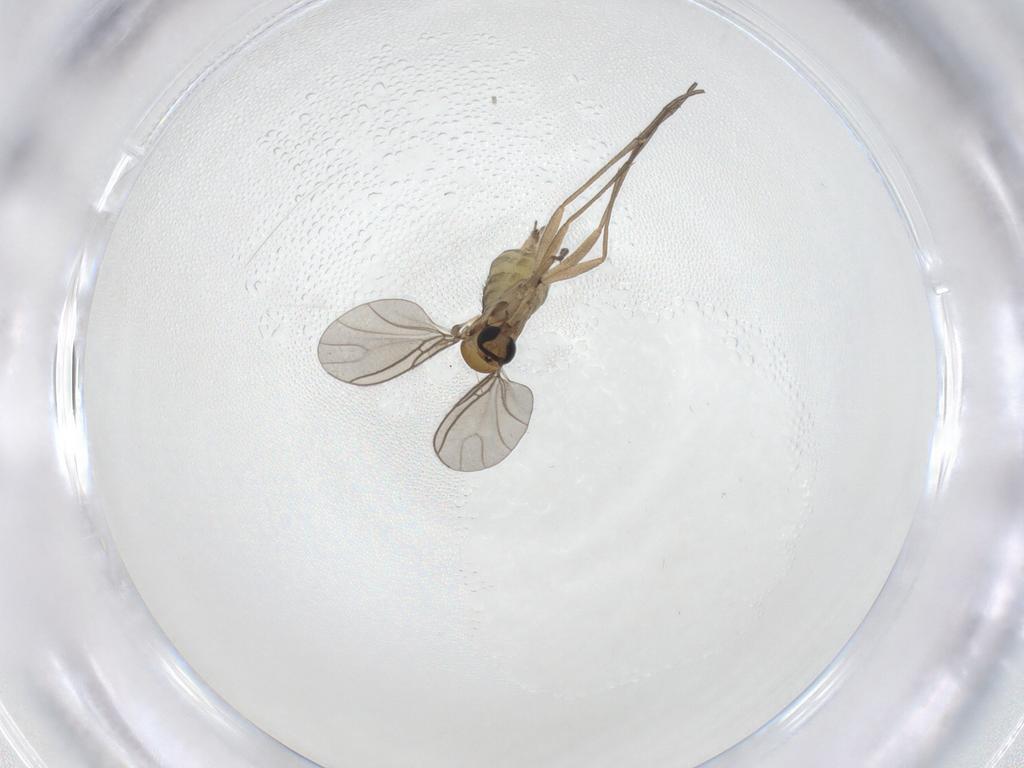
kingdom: Animalia
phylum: Arthropoda
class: Insecta
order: Diptera
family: Sciaridae
